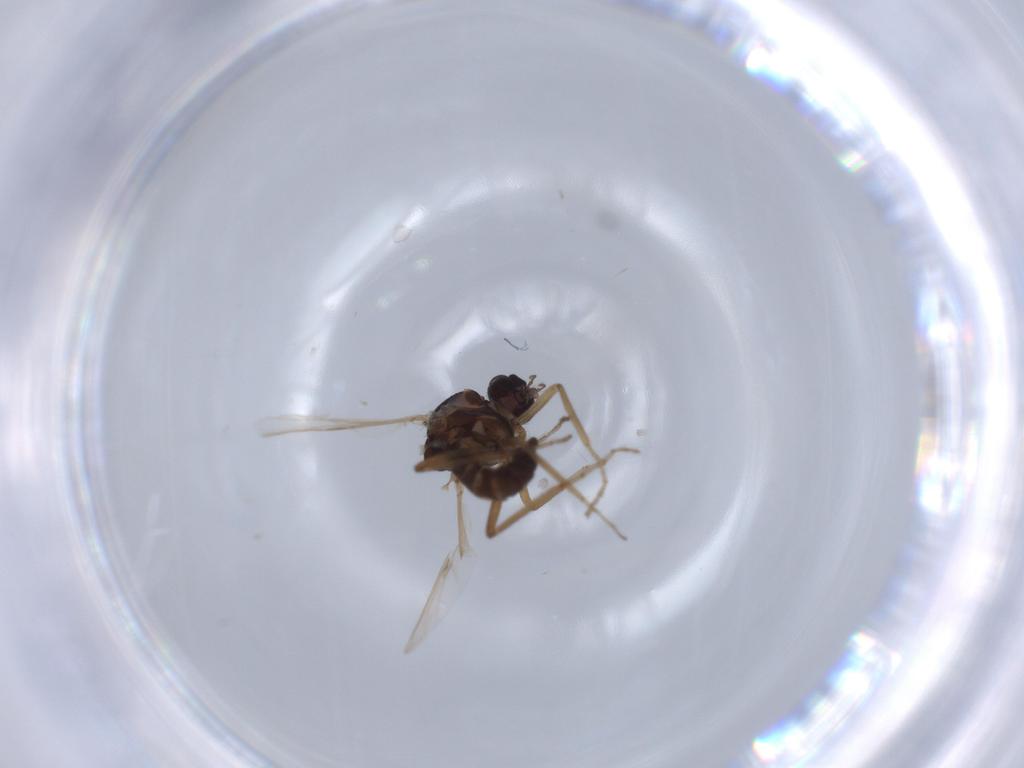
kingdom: Animalia
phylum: Arthropoda
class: Insecta
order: Diptera
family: Ceratopogonidae
